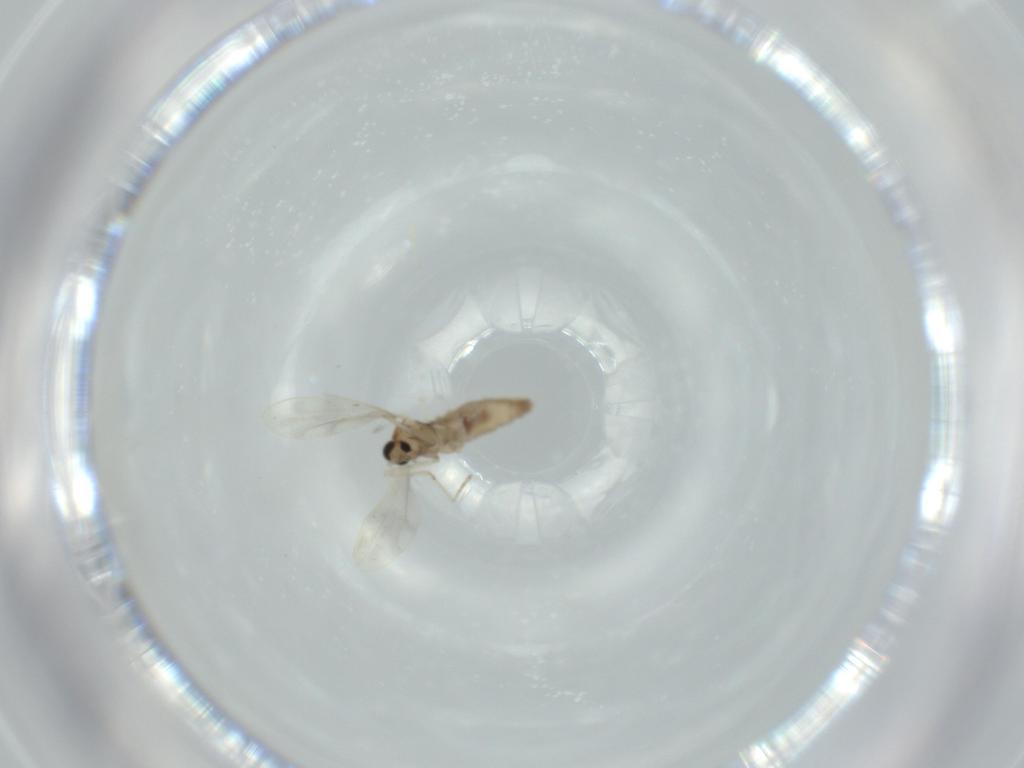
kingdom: Animalia
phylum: Arthropoda
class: Insecta
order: Diptera
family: Cecidomyiidae
